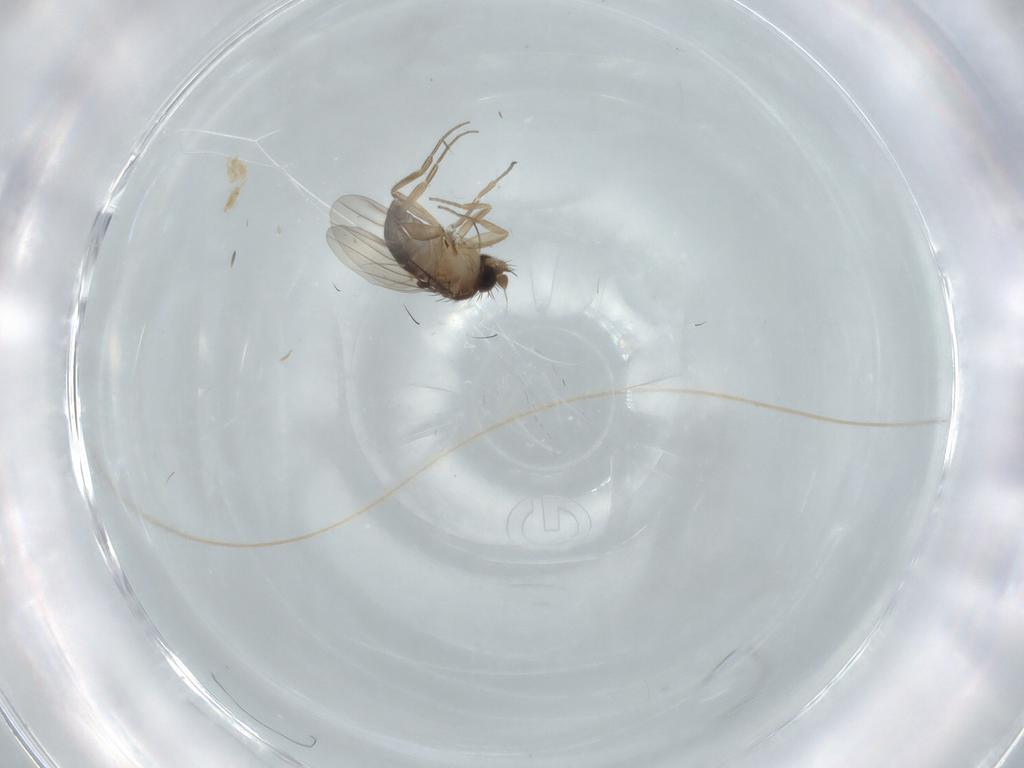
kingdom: Animalia
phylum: Arthropoda
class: Insecta
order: Diptera
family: Phoridae
